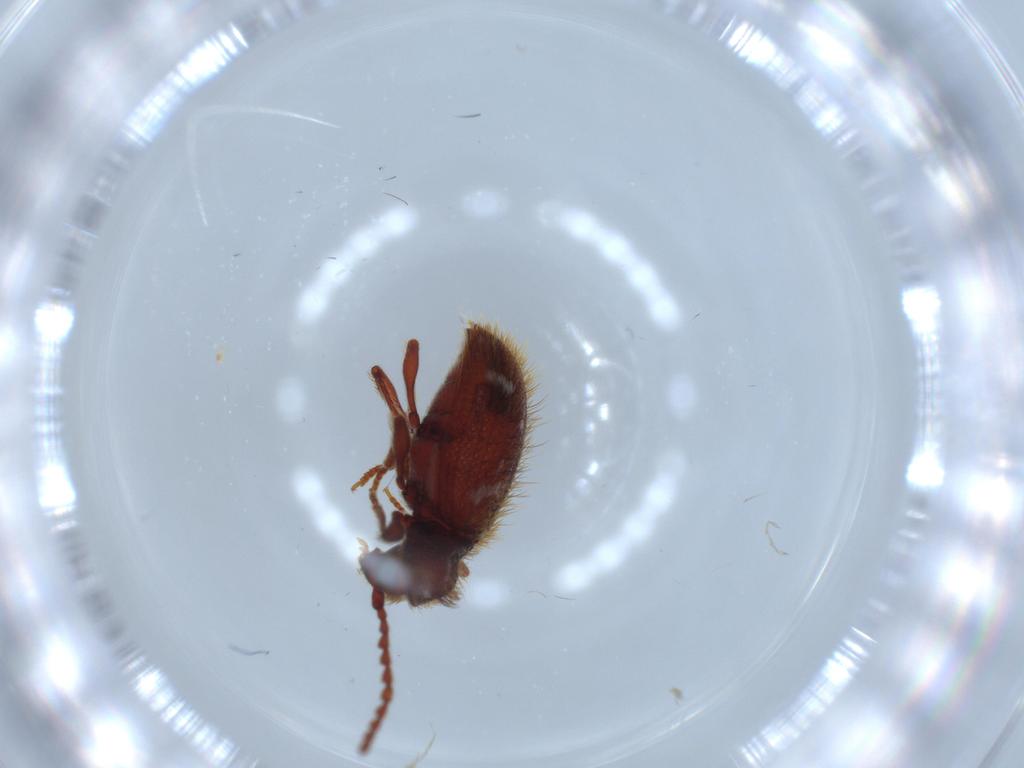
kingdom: Animalia
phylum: Arthropoda
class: Insecta
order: Coleoptera
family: Ptinidae
